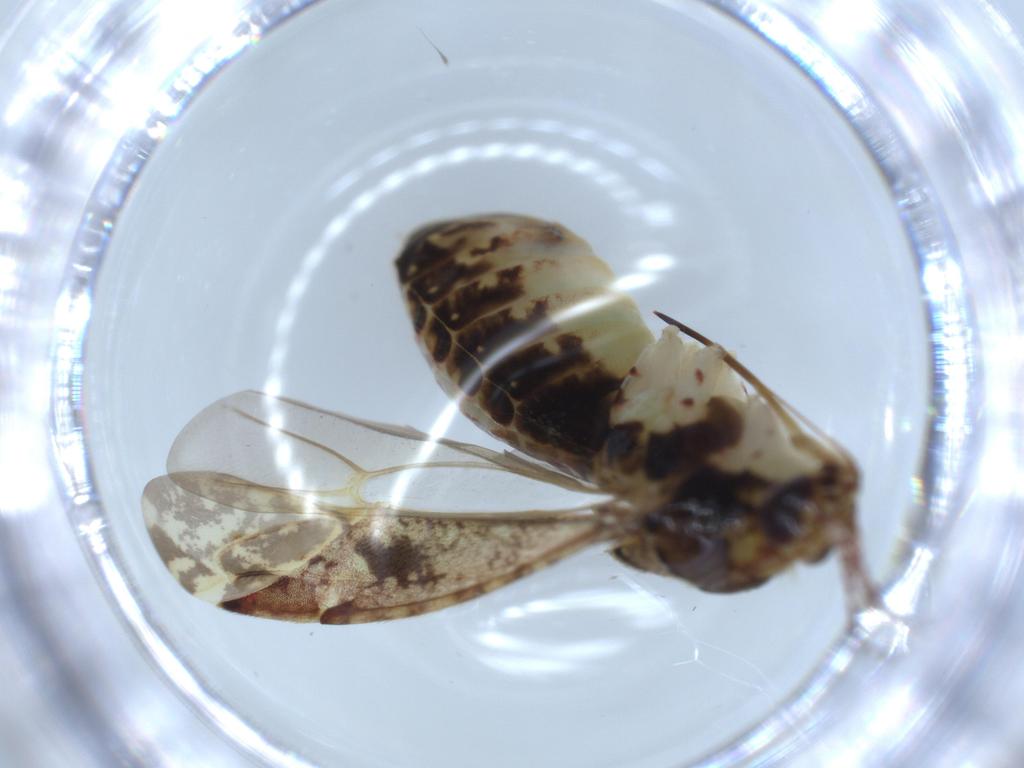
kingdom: Animalia
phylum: Arthropoda
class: Insecta
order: Hemiptera
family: Miridae
